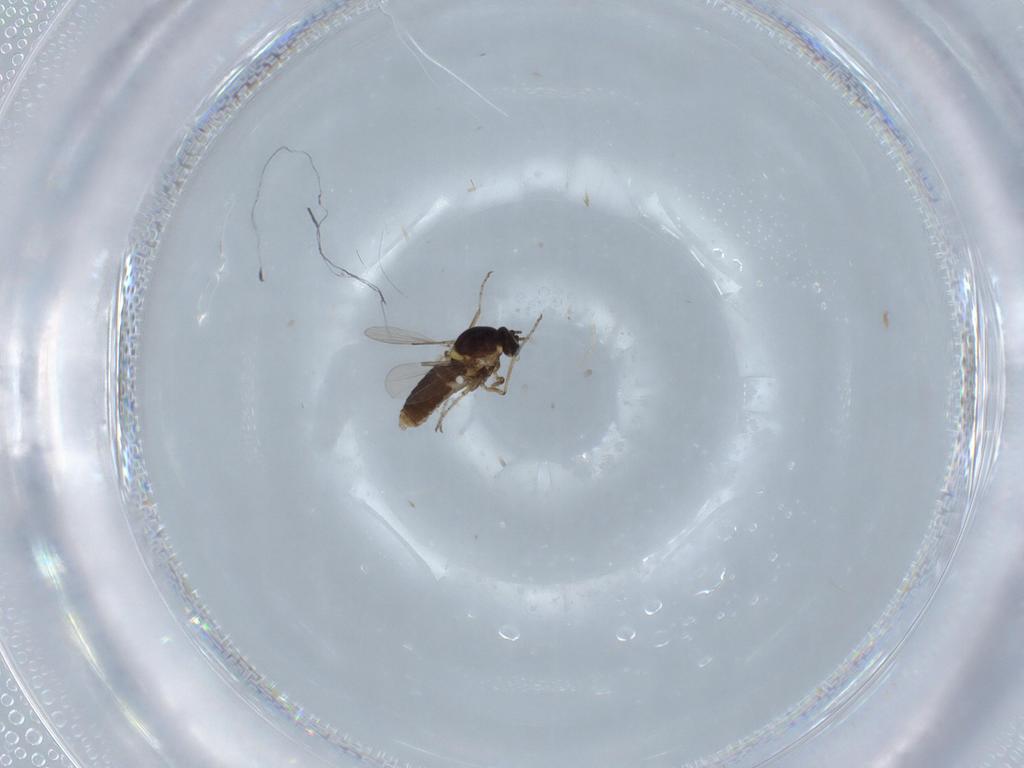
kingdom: Animalia
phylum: Arthropoda
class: Insecta
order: Diptera
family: Ceratopogonidae
